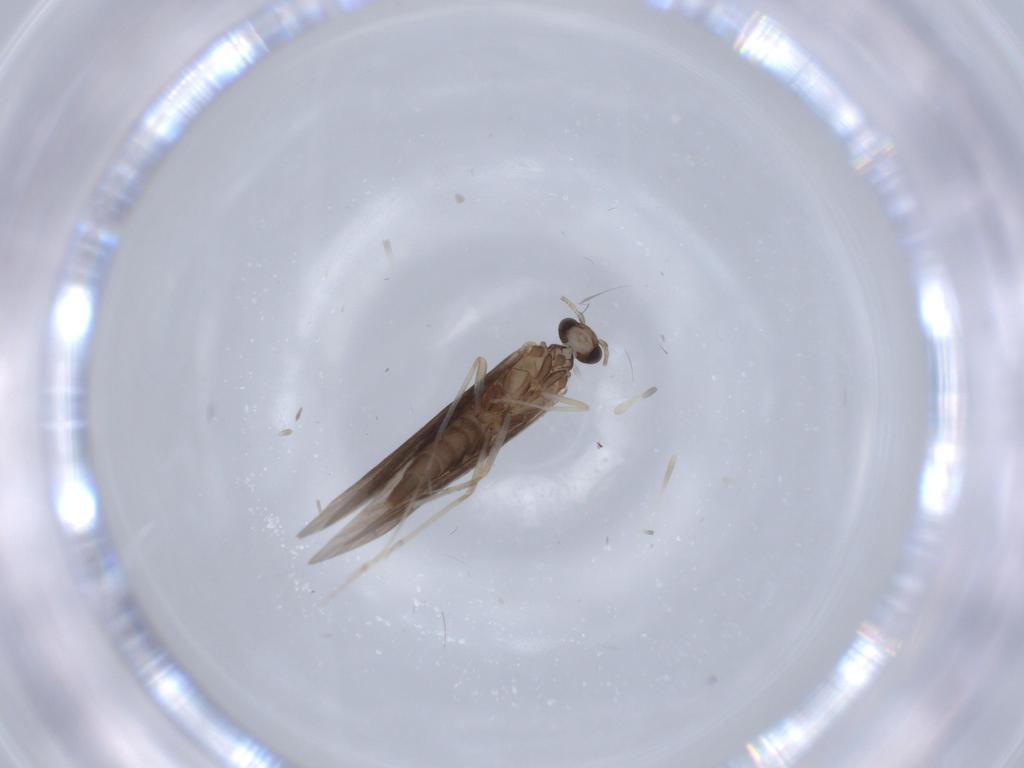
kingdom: Animalia
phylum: Arthropoda
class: Insecta
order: Trichoptera
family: Xiphocentronidae
